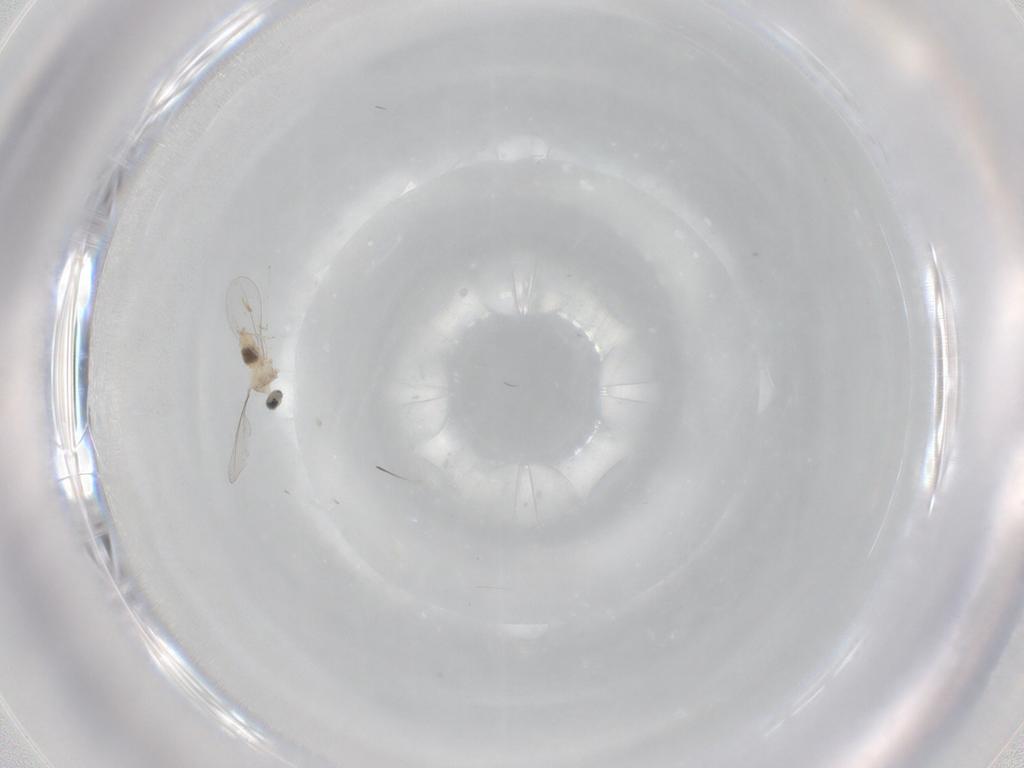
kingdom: Animalia
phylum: Arthropoda
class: Insecta
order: Diptera
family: Cecidomyiidae
